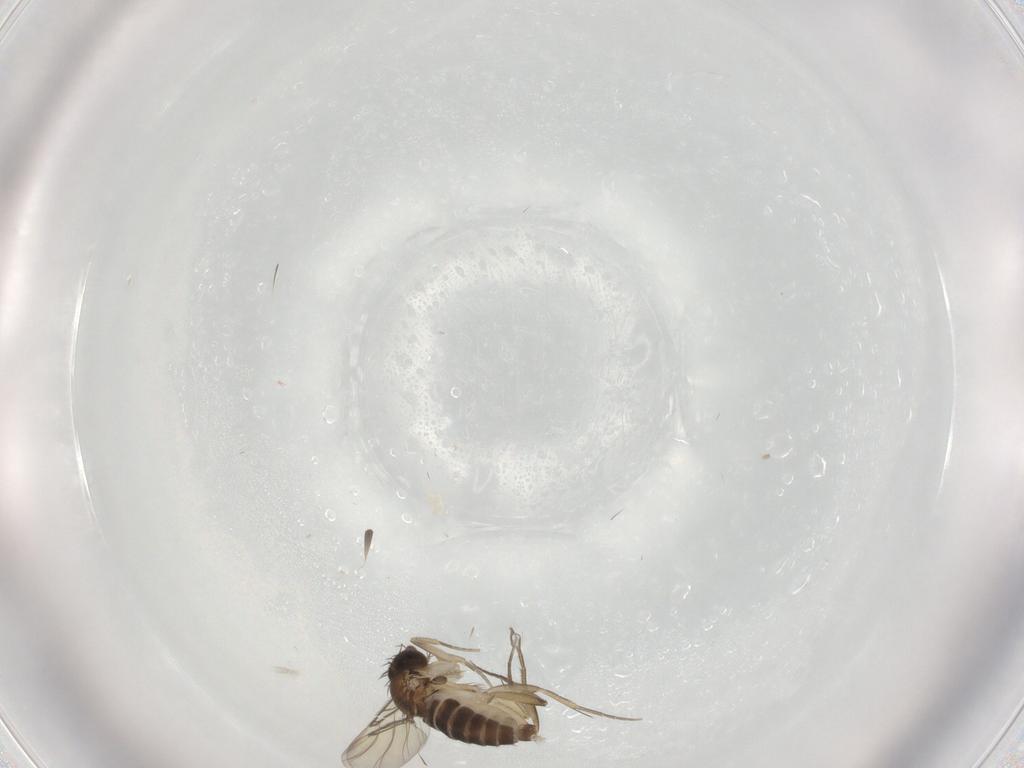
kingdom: Animalia
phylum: Arthropoda
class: Insecta
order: Diptera
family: Phoridae
